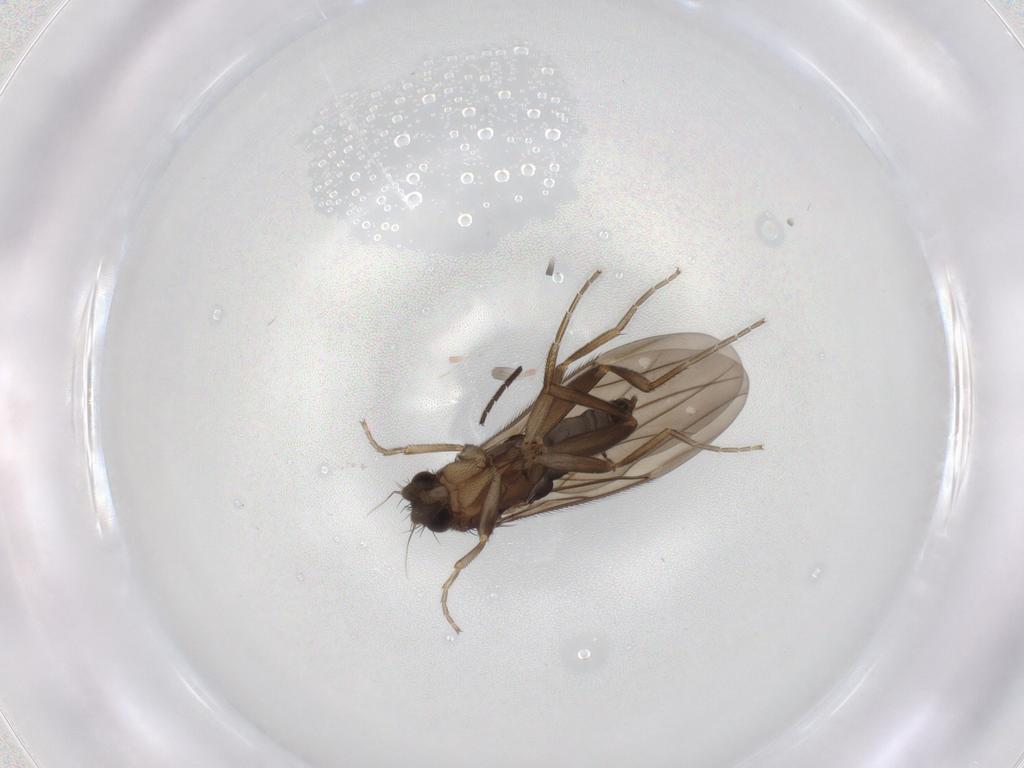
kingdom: Animalia
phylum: Arthropoda
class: Insecta
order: Diptera
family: Phoridae
